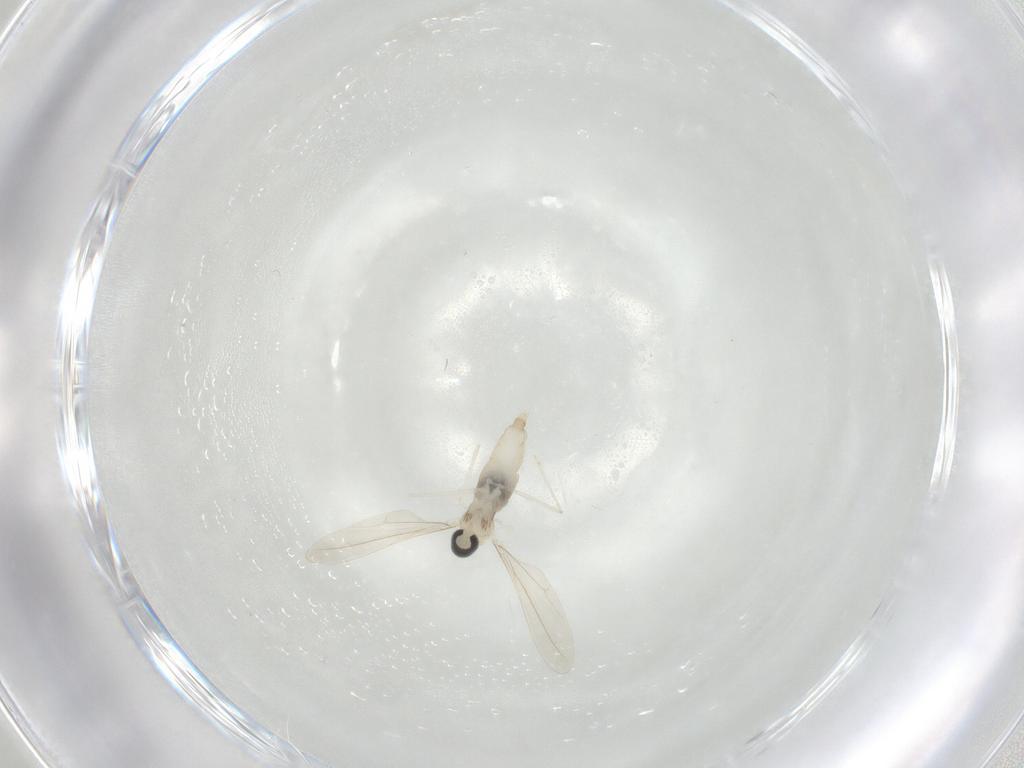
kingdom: Animalia
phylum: Arthropoda
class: Insecta
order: Diptera
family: Cecidomyiidae
